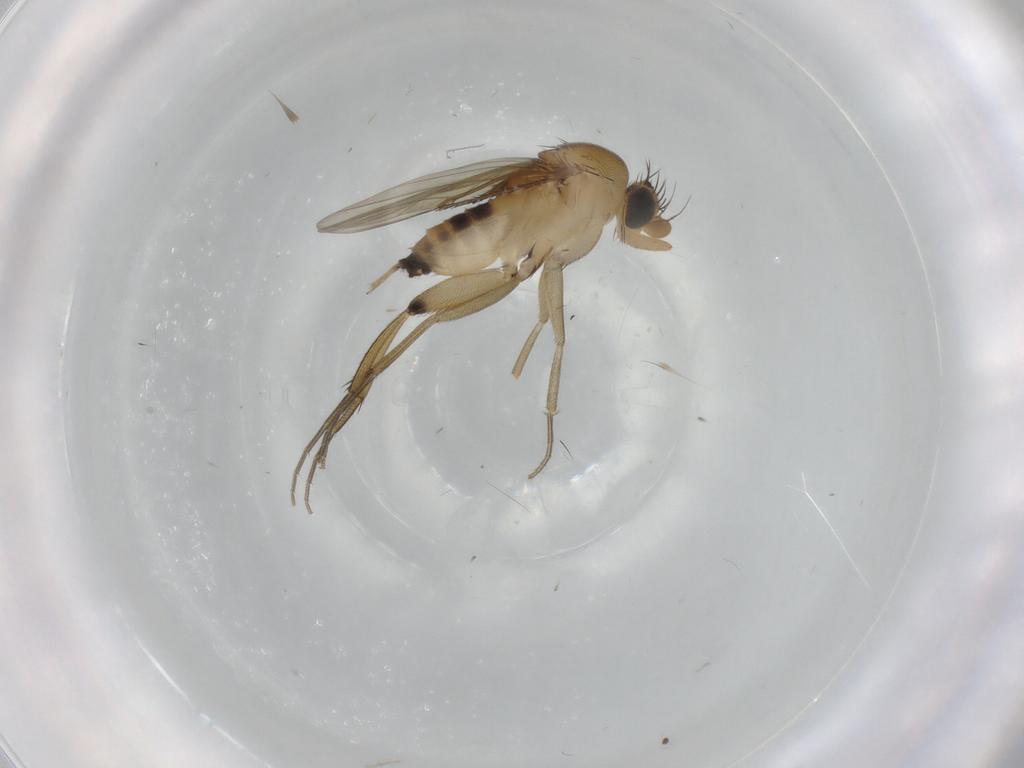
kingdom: Animalia
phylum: Arthropoda
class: Insecta
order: Diptera
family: Phoridae
